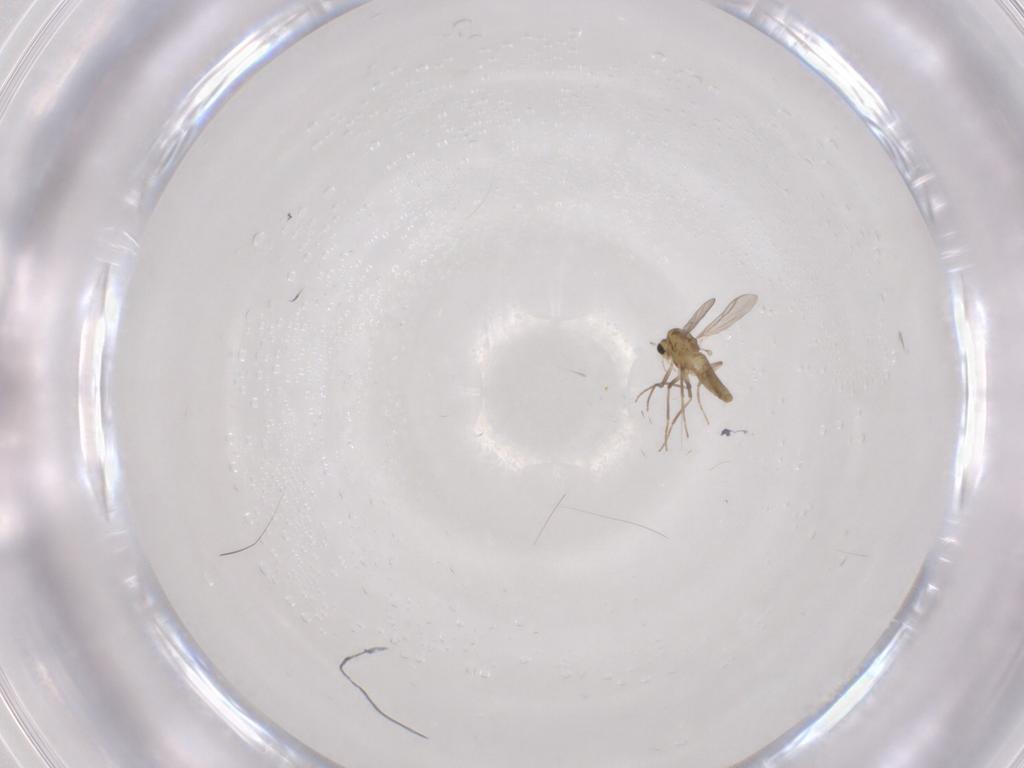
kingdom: Animalia
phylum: Arthropoda
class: Insecta
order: Diptera
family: Chironomidae
